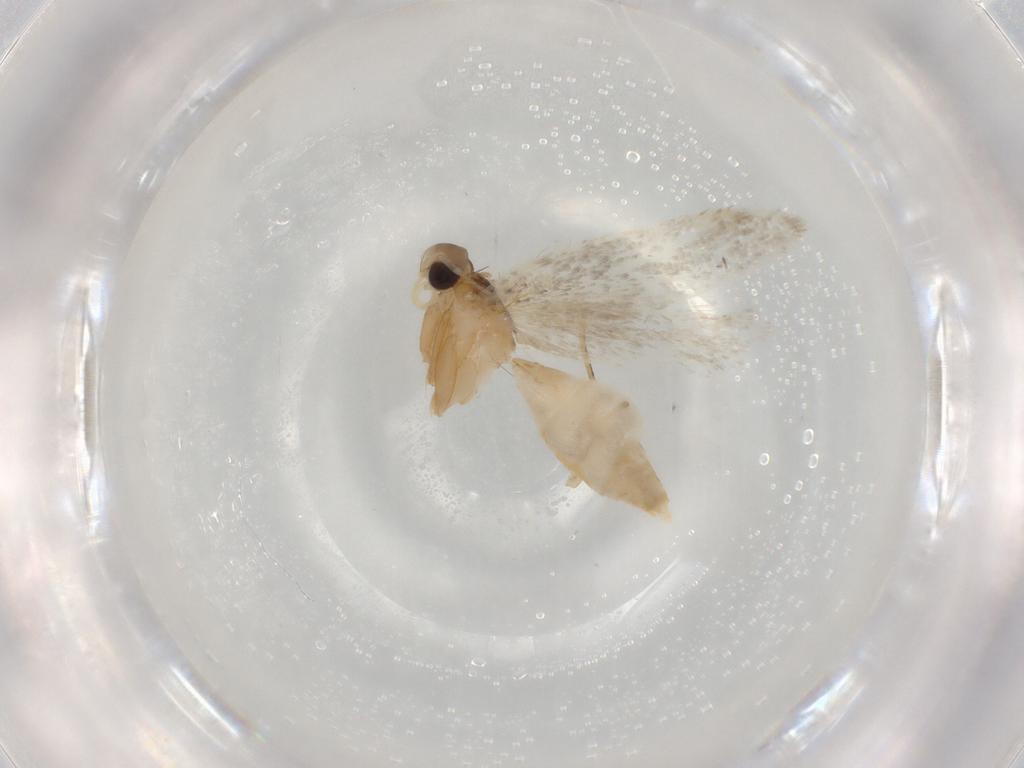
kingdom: Animalia
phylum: Arthropoda
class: Insecta
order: Lepidoptera
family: Autostichidae
